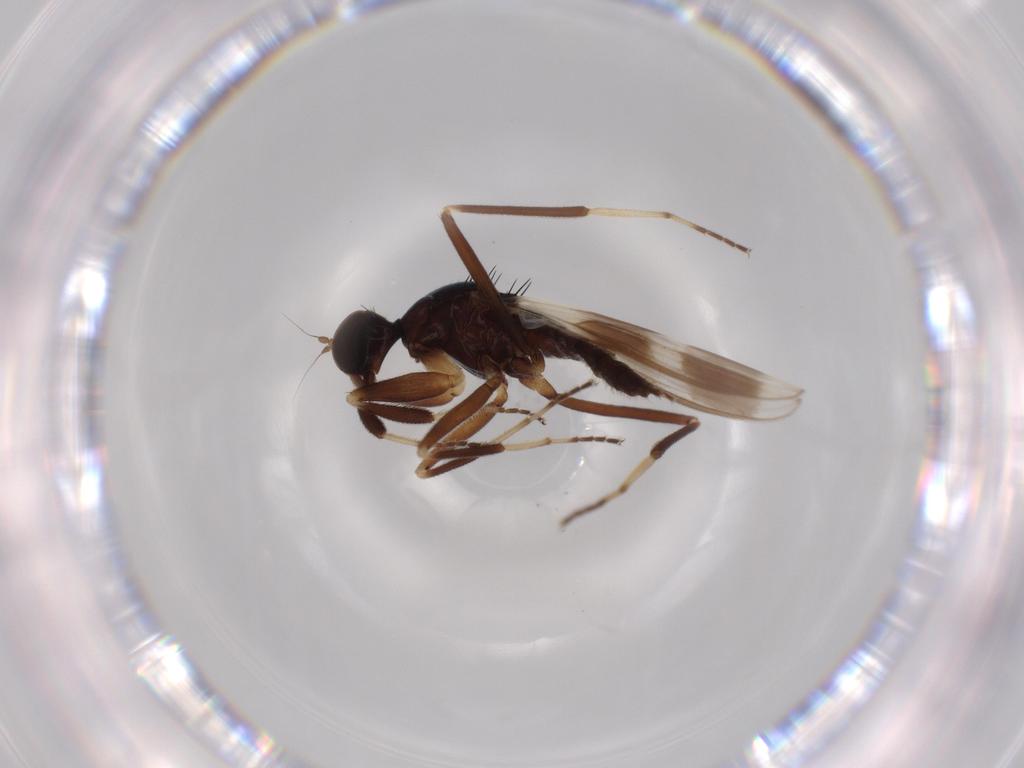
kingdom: Animalia
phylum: Arthropoda
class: Insecta
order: Diptera
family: Hybotidae
